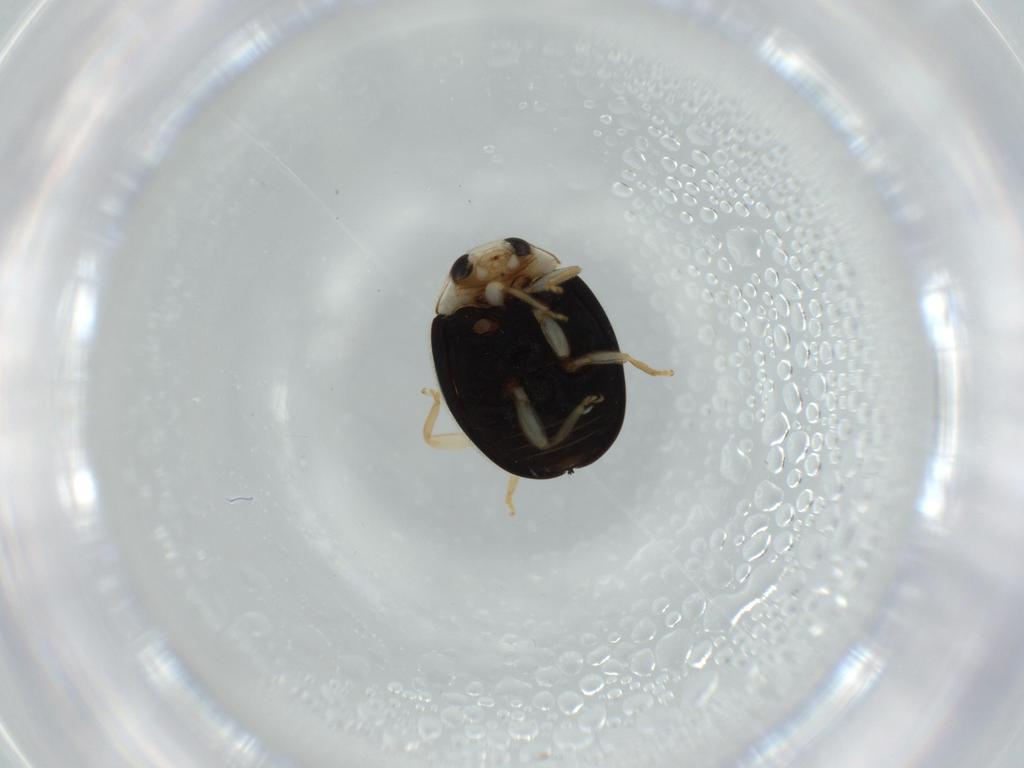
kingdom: Animalia
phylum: Arthropoda
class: Insecta
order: Coleoptera
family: Coccinellidae
